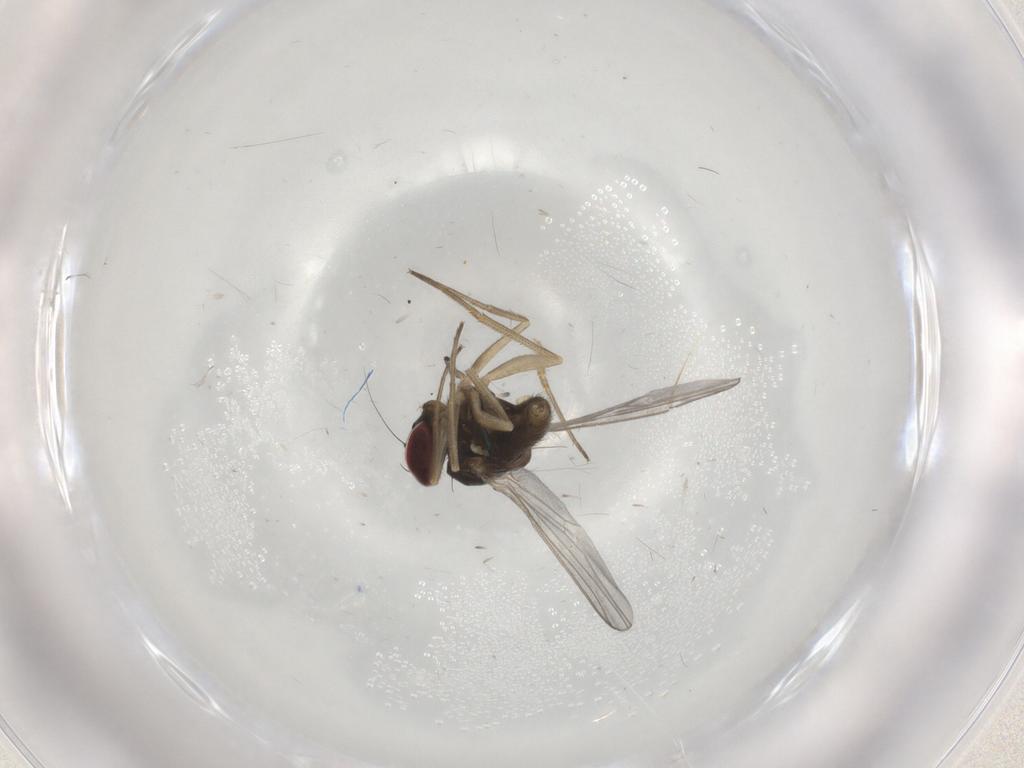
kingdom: Animalia
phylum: Arthropoda
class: Insecta
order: Diptera
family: Dolichopodidae
